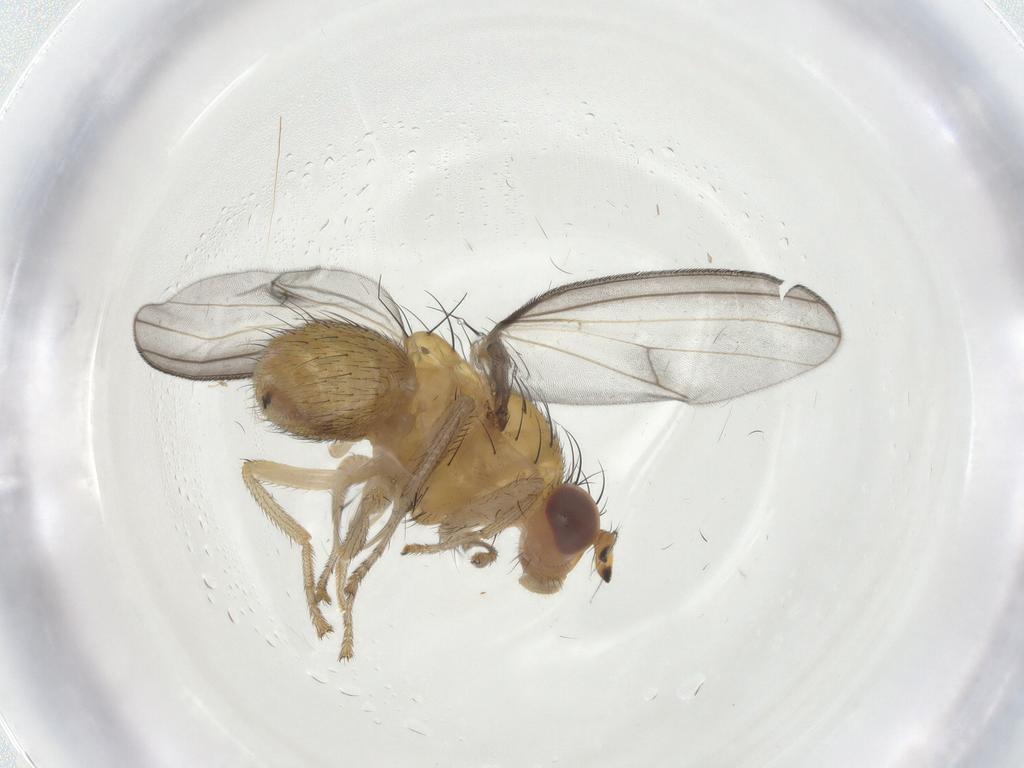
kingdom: Animalia
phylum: Arthropoda
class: Insecta
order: Diptera
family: Lauxaniidae
